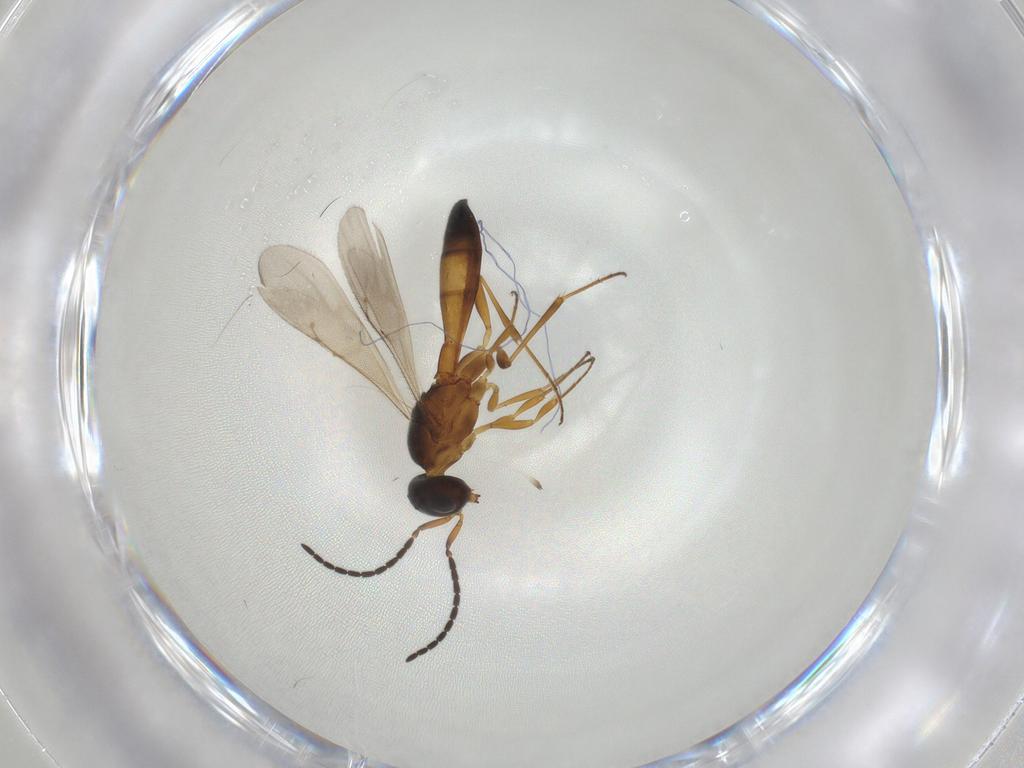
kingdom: Animalia
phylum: Arthropoda
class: Insecta
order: Hymenoptera
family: Scelionidae
